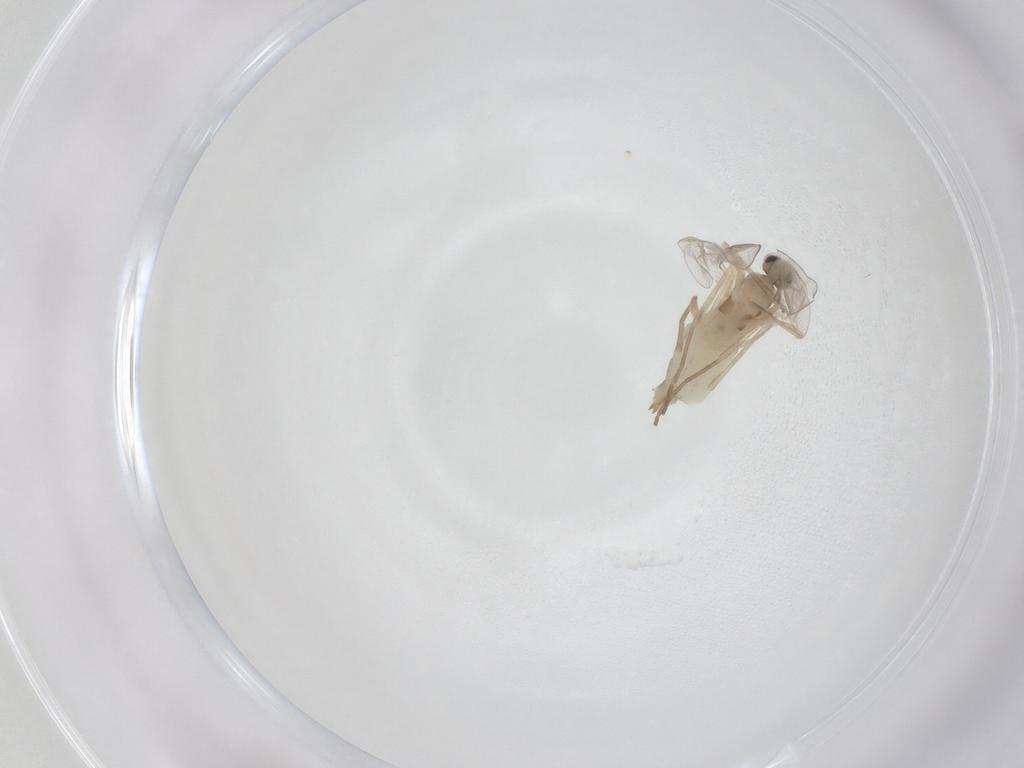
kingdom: Animalia
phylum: Arthropoda
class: Insecta
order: Diptera
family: Cecidomyiidae
